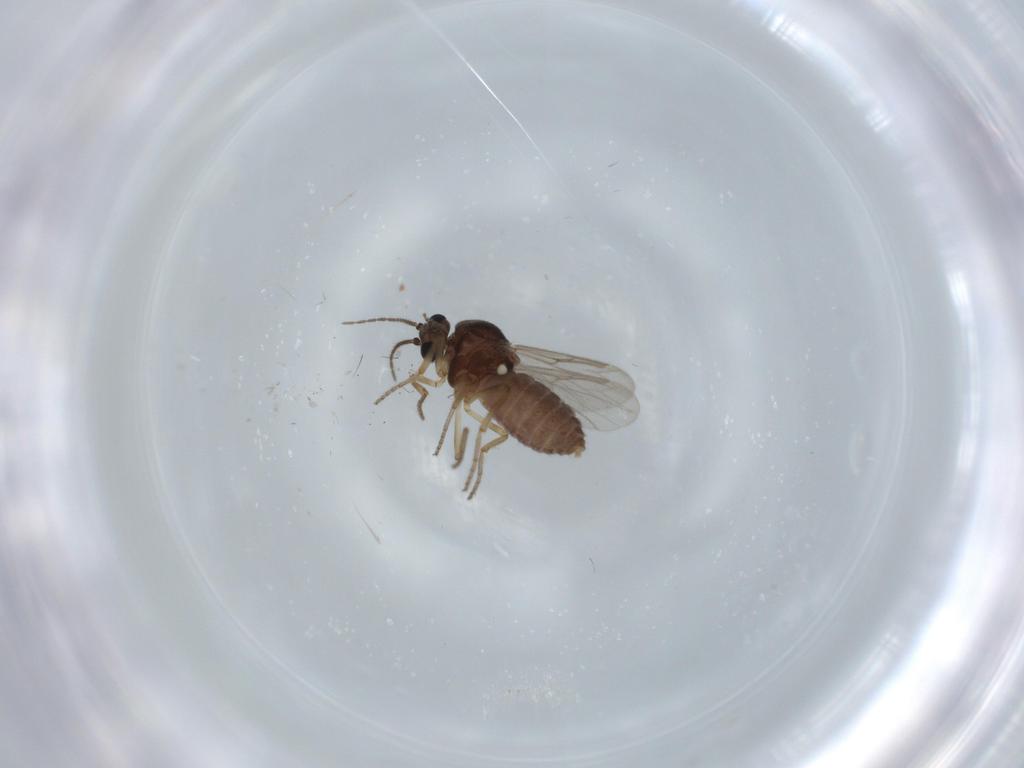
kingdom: Animalia
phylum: Arthropoda
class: Insecta
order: Diptera
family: Ceratopogonidae
